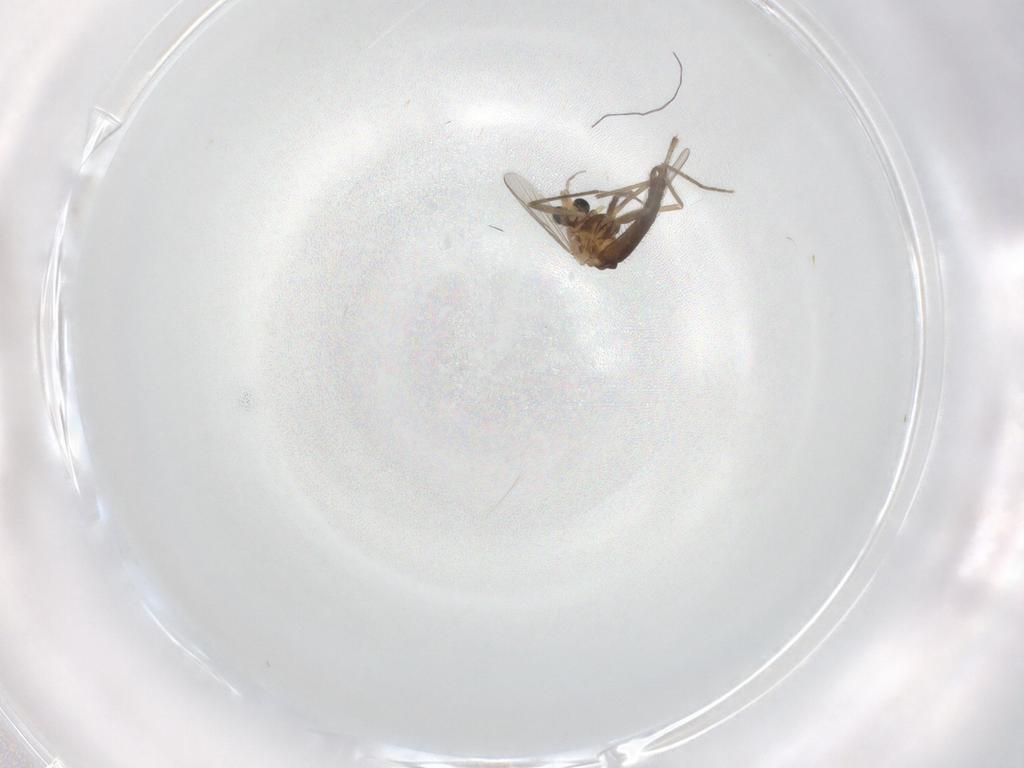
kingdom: Animalia
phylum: Arthropoda
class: Insecta
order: Diptera
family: Chironomidae
